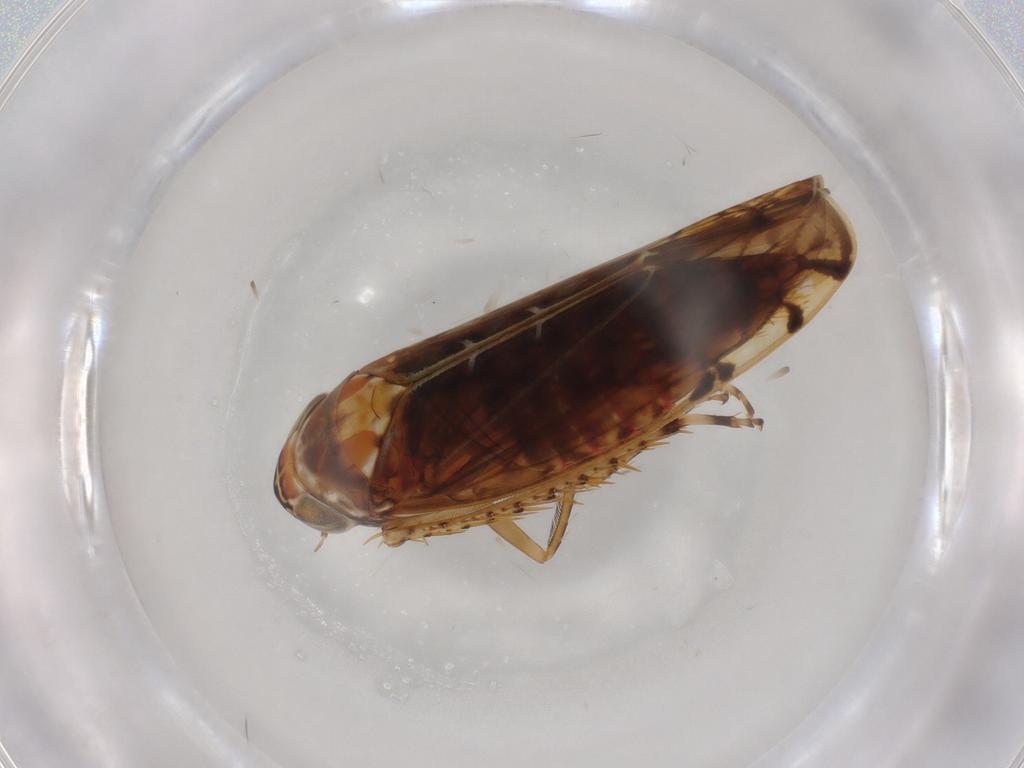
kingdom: Animalia
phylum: Arthropoda
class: Insecta
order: Hemiptera
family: Cicadellidae
